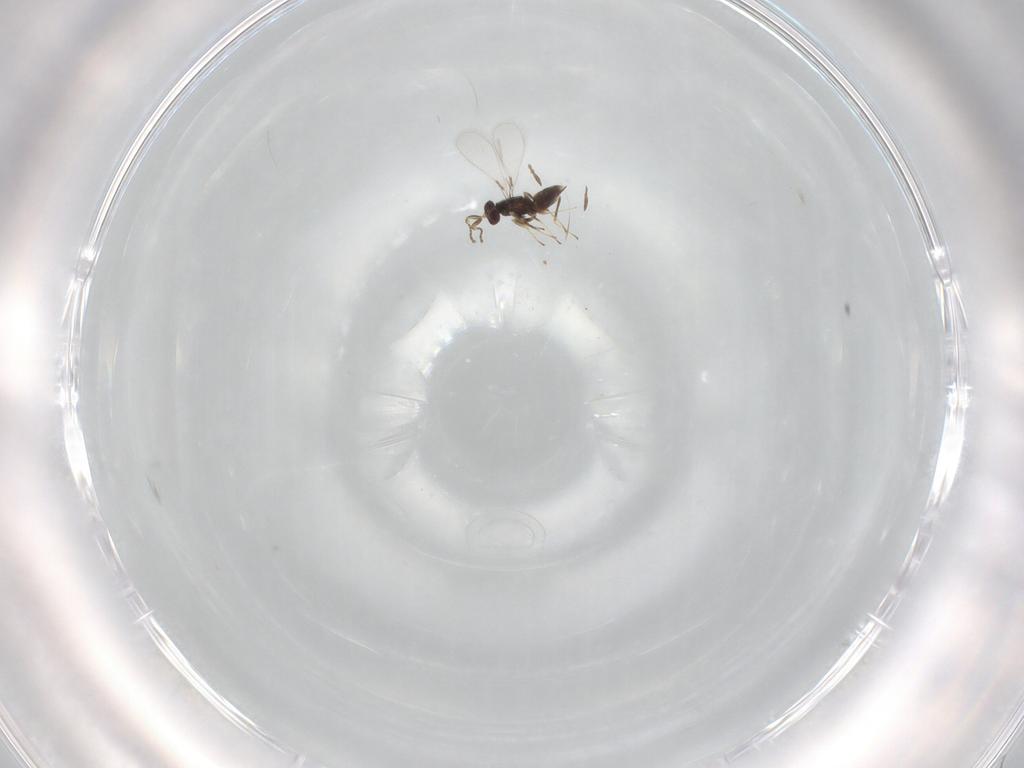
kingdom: Animalia
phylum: Arthropoda
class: Insecta
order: Hymenoptera
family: Mymaridae
